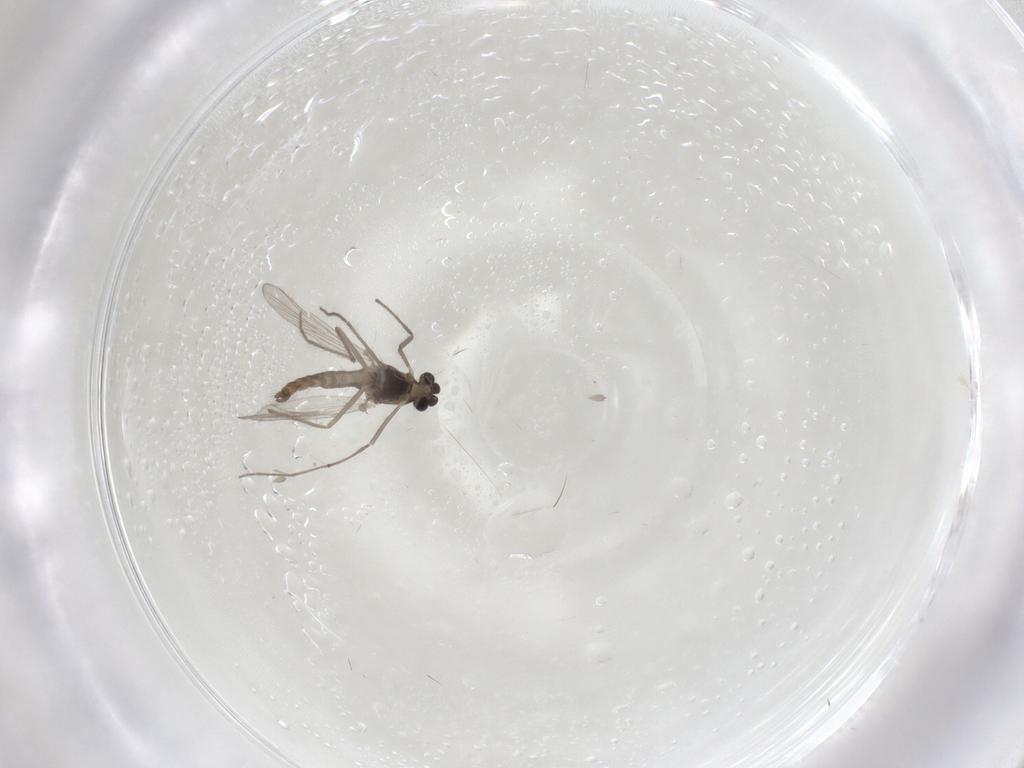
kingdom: Animalia
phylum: Arthropoda
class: Insecta
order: Diptera
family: Chironomidae
